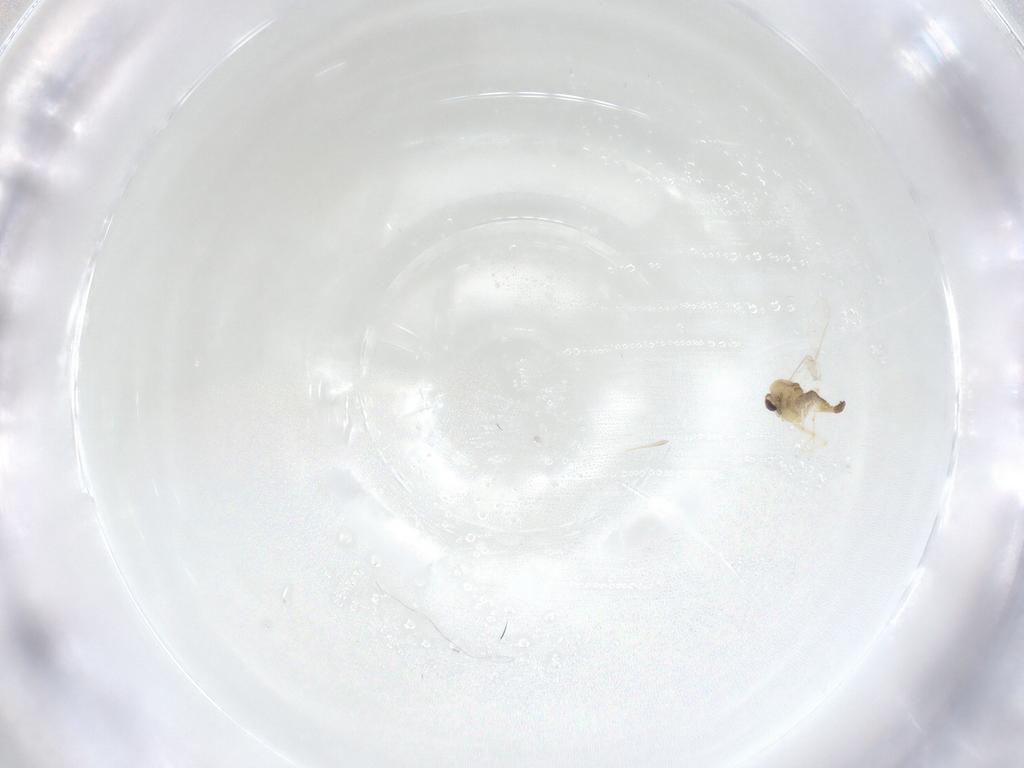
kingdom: Animalia
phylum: Arthropoda
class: Insecta
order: Diptera
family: Chironomidae
